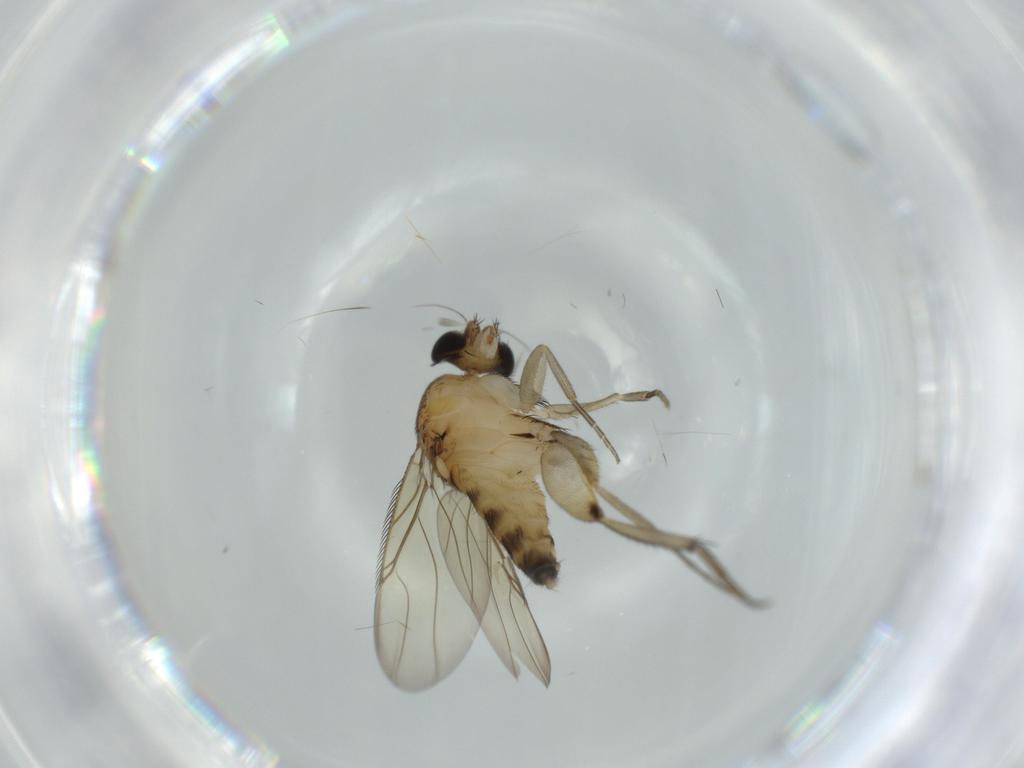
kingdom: Animalia
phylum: Arthropoda
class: Insecta
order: Diptera
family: Phoridae
